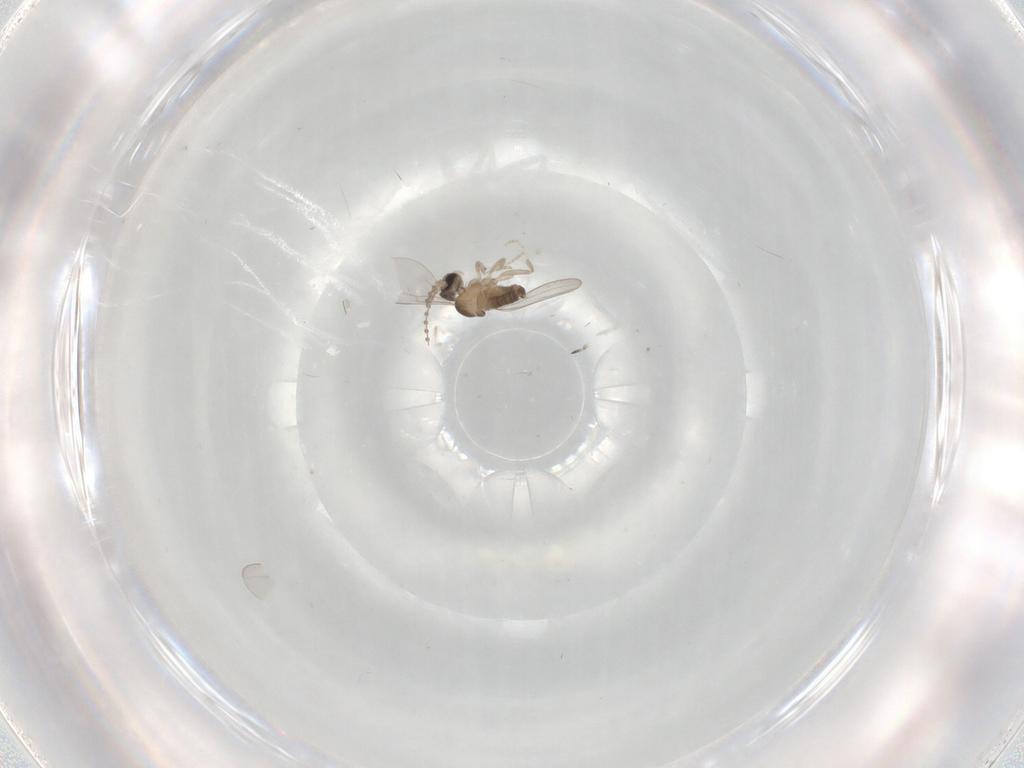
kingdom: Animalia
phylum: Arthropoda
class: Insecta
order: Diptera
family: Cecidomyiidae
